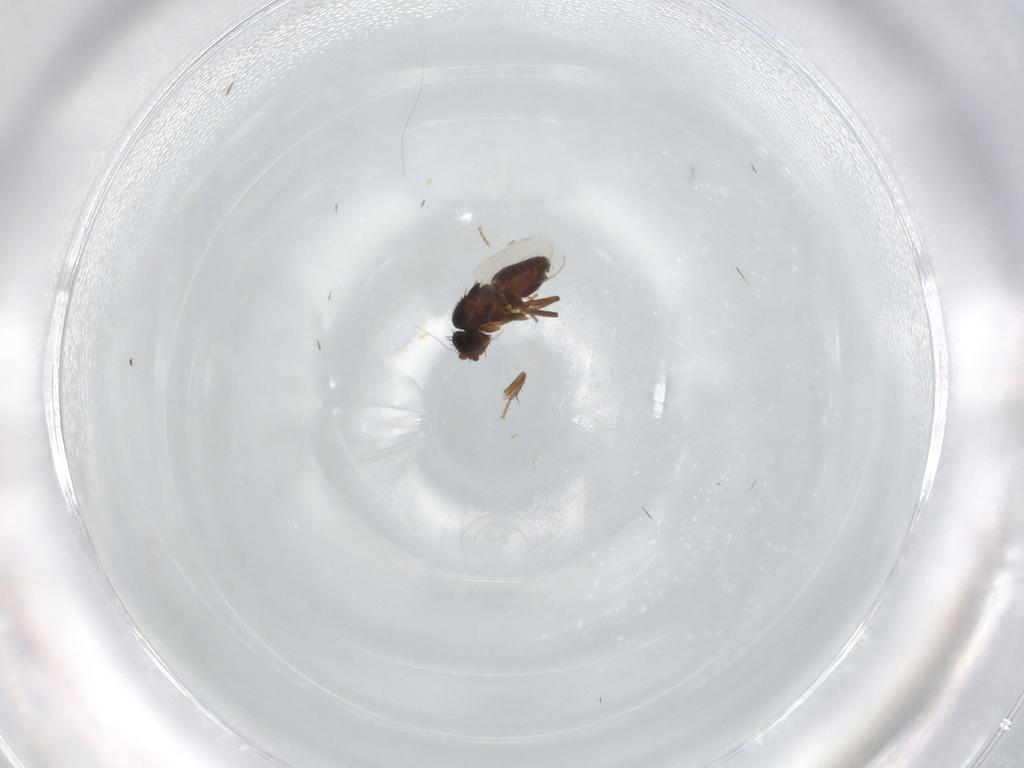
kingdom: Animalia
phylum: Arthropoda
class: Insecta
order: Diptera
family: Sphaeroceridae
